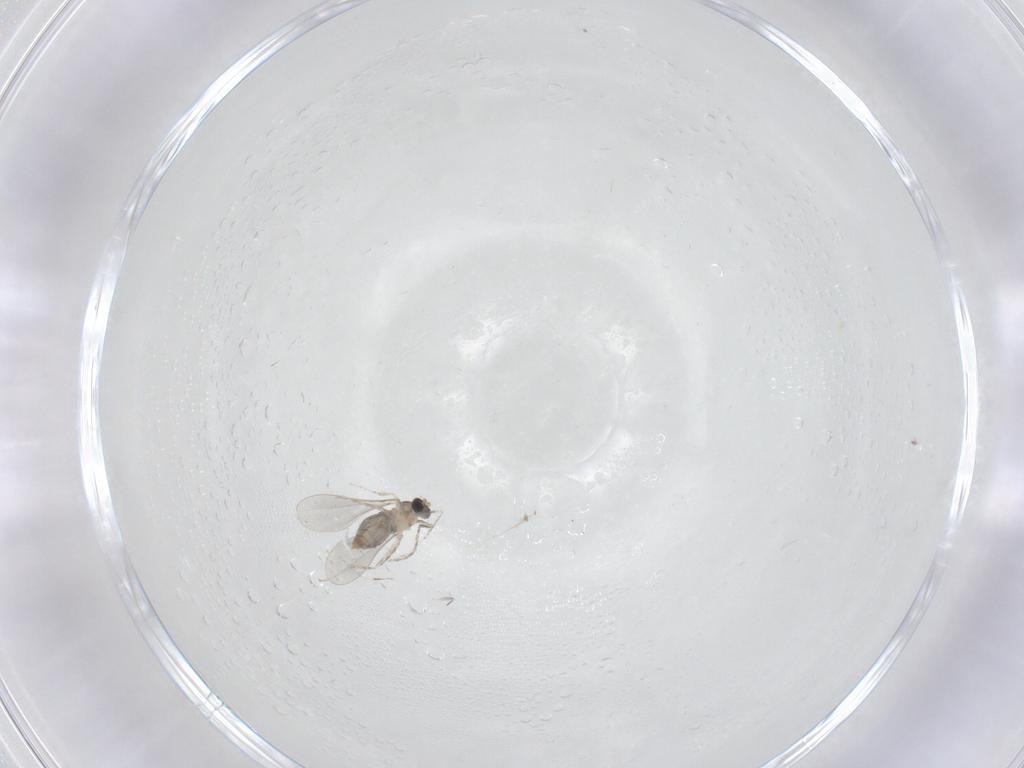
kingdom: Animalia
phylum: Arthropoda
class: Insecta
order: Diptera
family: Cecidomyiidae
